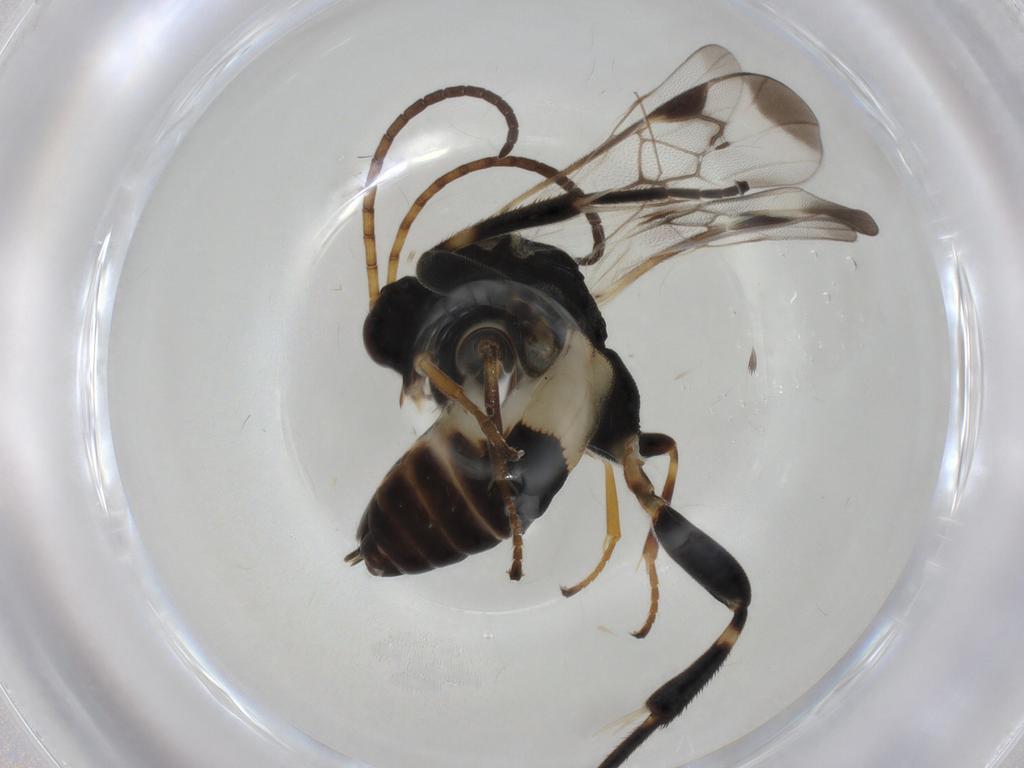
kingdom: Animalia
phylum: Arthropoda
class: Insecta
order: Hymenoptera
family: Braconidae
